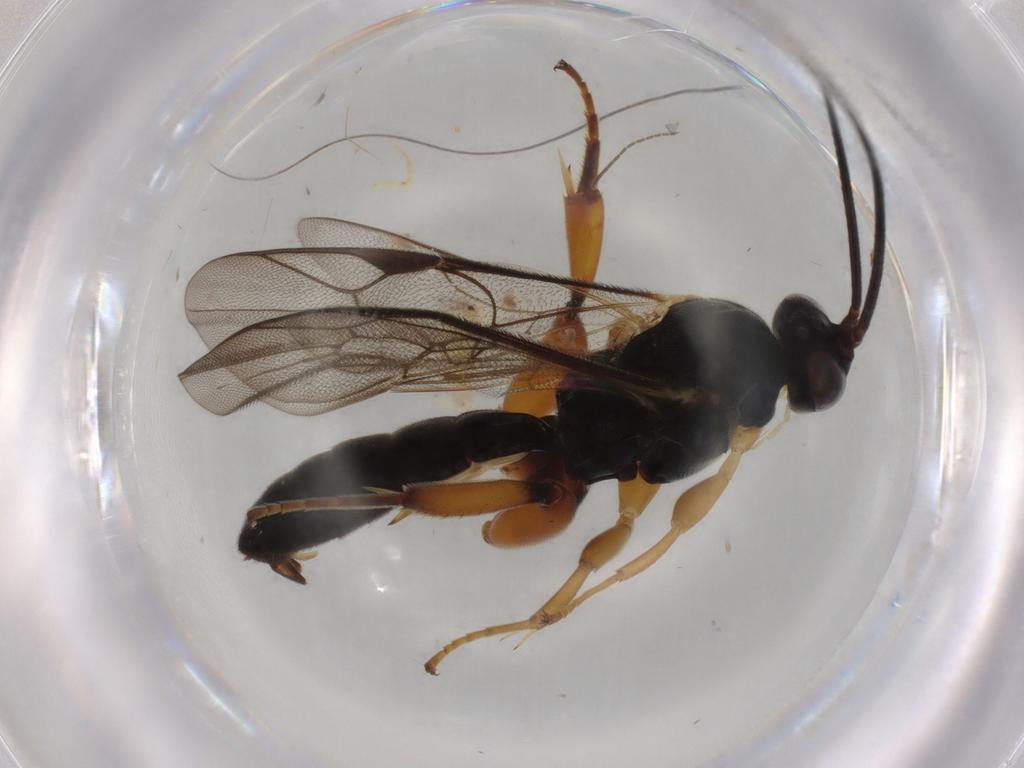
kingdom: Animalia
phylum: Arthropoda
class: Insecta
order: Hymenoptera
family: Ichneumonidae
